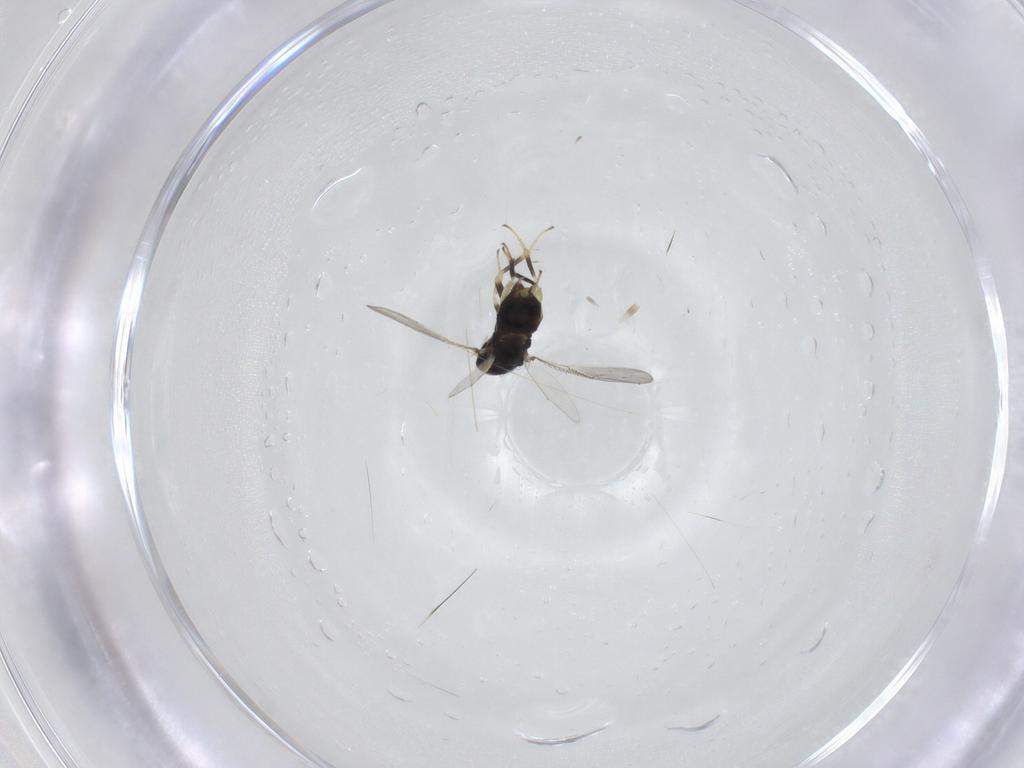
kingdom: Animalia
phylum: Arthropoda
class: Insecta
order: Hymenoptera
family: Aphelinidae
